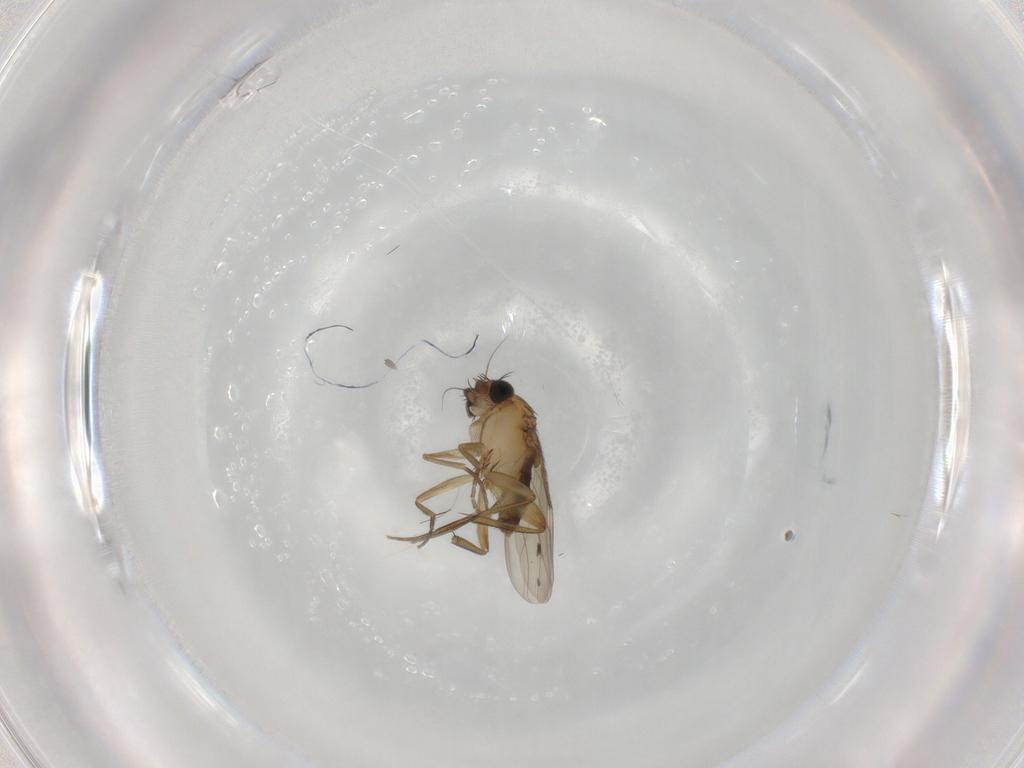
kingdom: Animalia
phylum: Arthropoda
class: Insecta
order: Diptera
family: Phoridae
